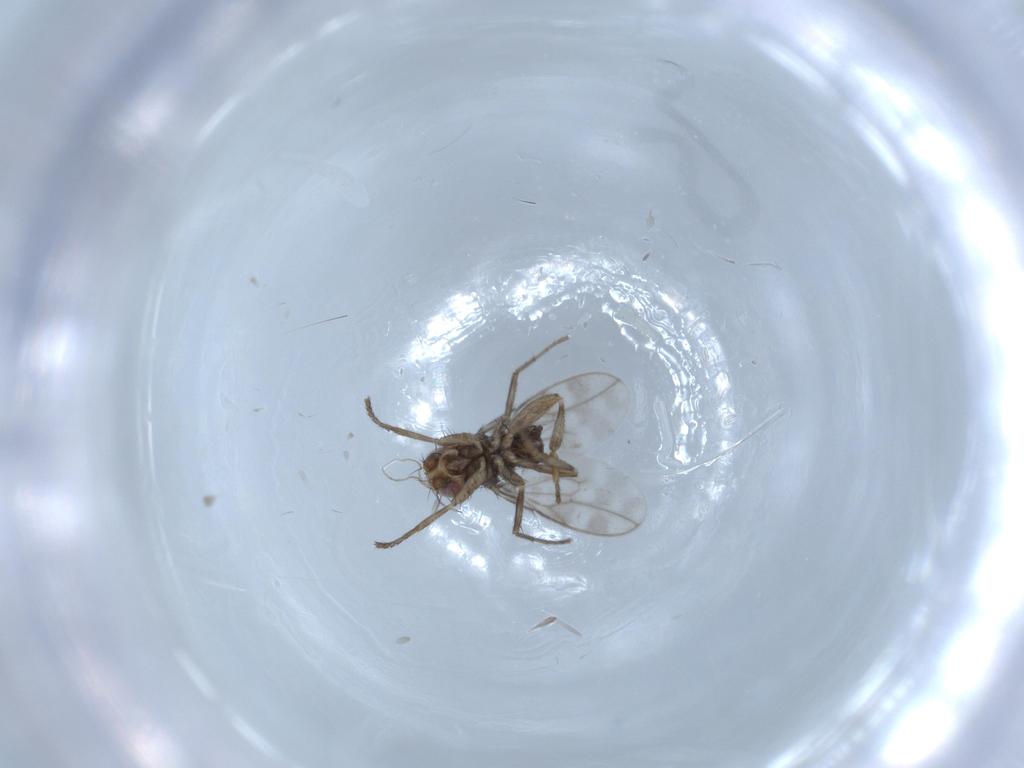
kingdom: Animalia
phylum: Arthropoda
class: Insecta
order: Diptera
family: Sphaeroceridae
